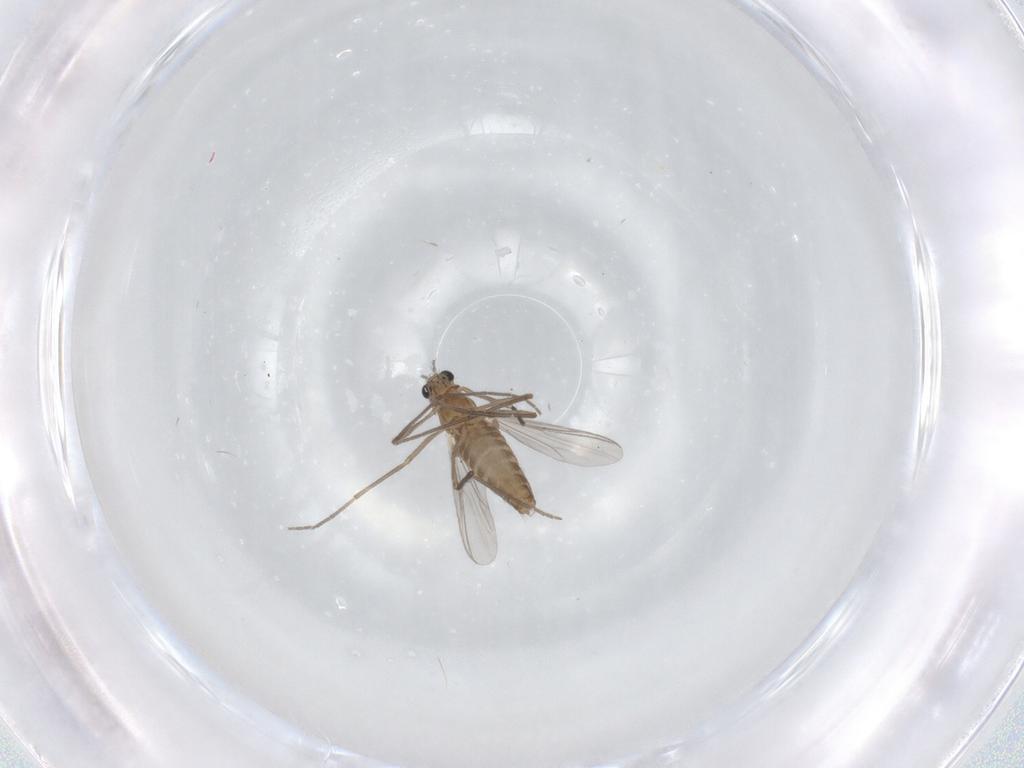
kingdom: Animalia
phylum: Arthropoda
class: Insecta
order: Diptera
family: Chironomidae
